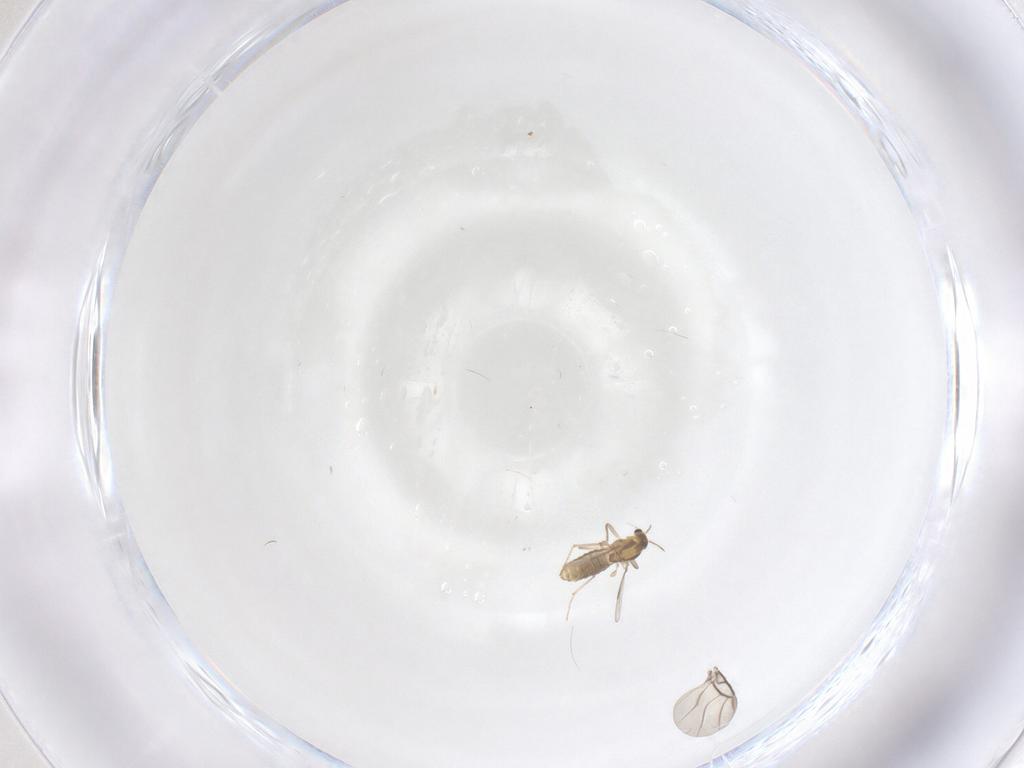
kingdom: Animalia
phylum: Arthropoda
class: Insecta
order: Diptera
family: Chironomidae
